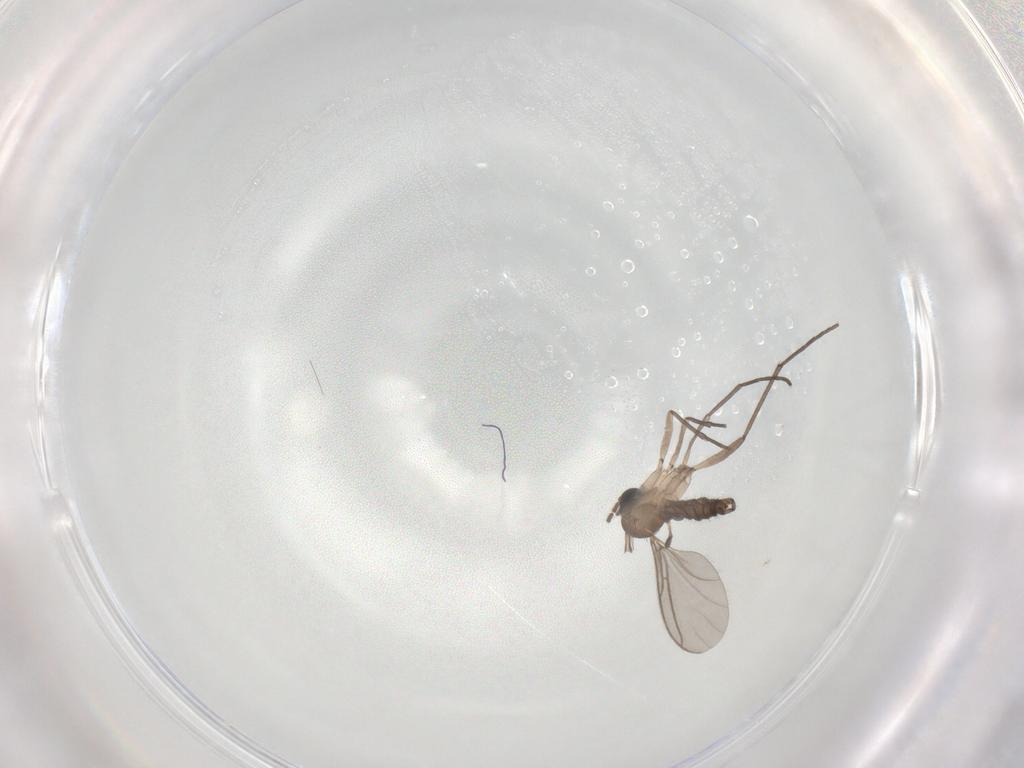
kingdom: Animalia
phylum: Arthropoda
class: Insecta
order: Diptera
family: Sciaridae
